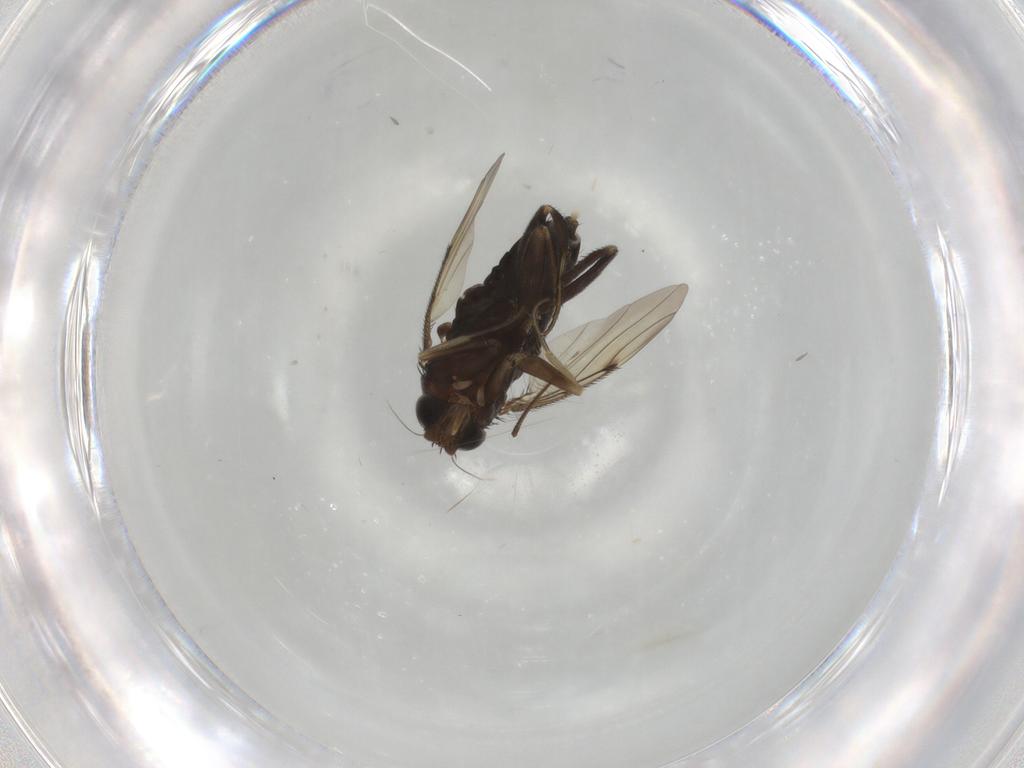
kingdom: Animalia
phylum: Arthropoda
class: Insecta
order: Diptera
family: Phoridae
